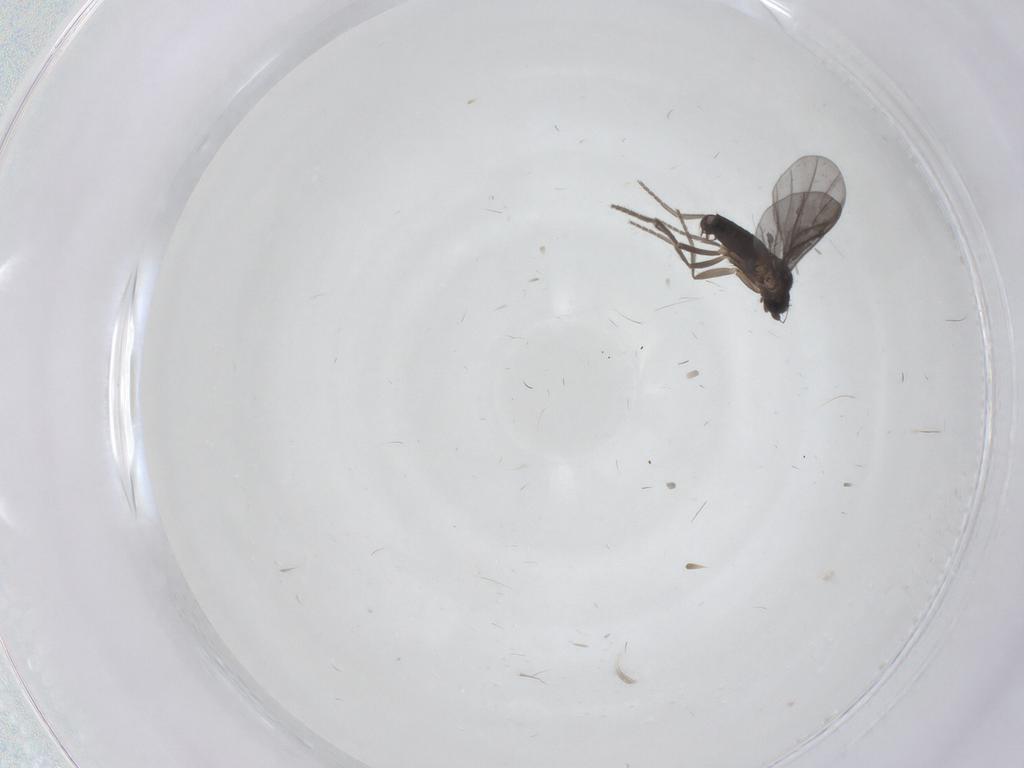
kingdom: Animalia
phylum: Arthropoda
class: Insecta
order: Diptera
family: Phoridae
